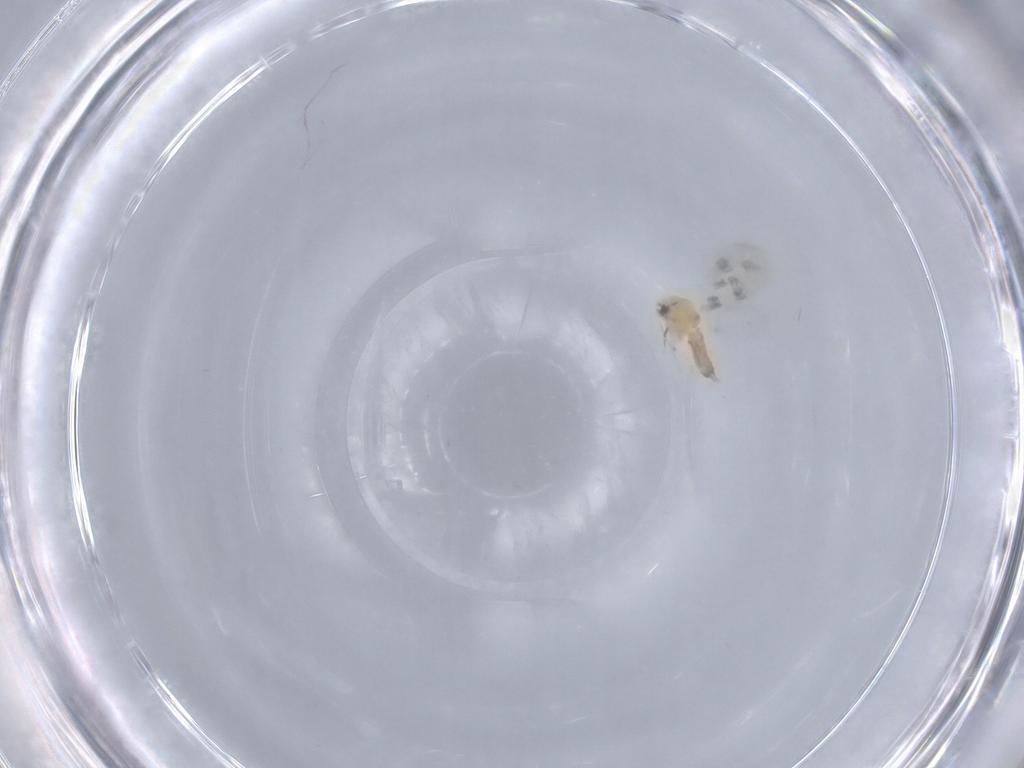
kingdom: Animalia
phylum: Arthropoda
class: Insecta
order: Hemiptera
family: Aleyrodidae
